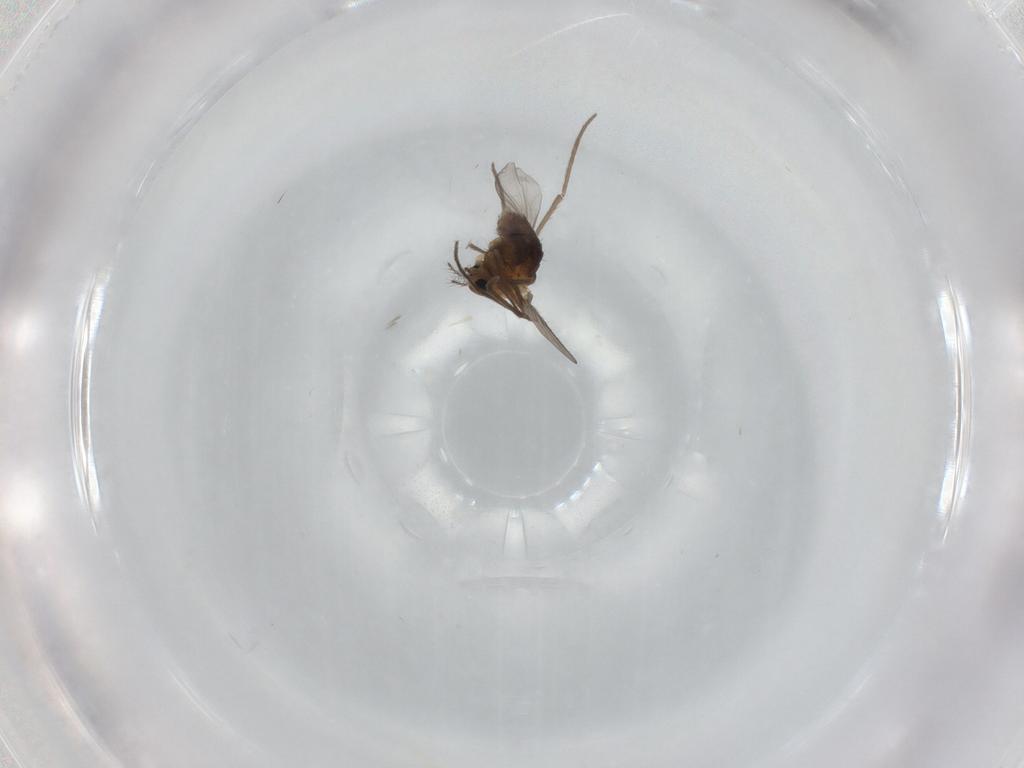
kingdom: Animalia
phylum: Arthropoda
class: Insecta
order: Diptera
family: Chironomidae
